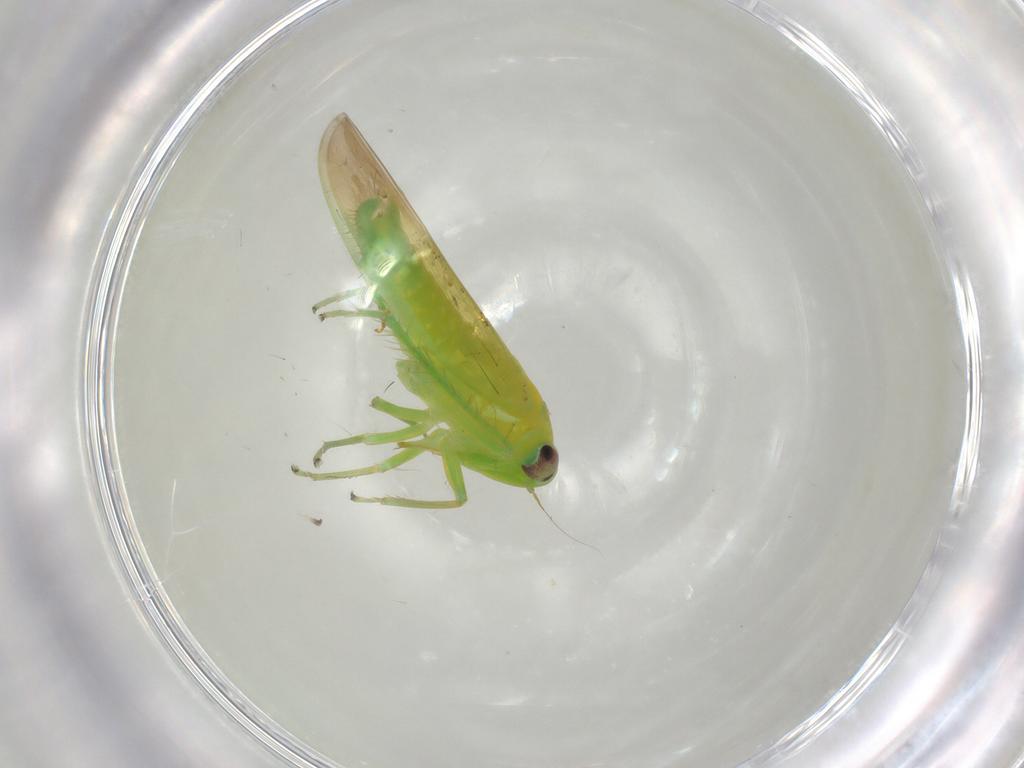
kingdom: Animalia
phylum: Arthropoda
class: Insecta
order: Hemiptera
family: Cicadellidae
